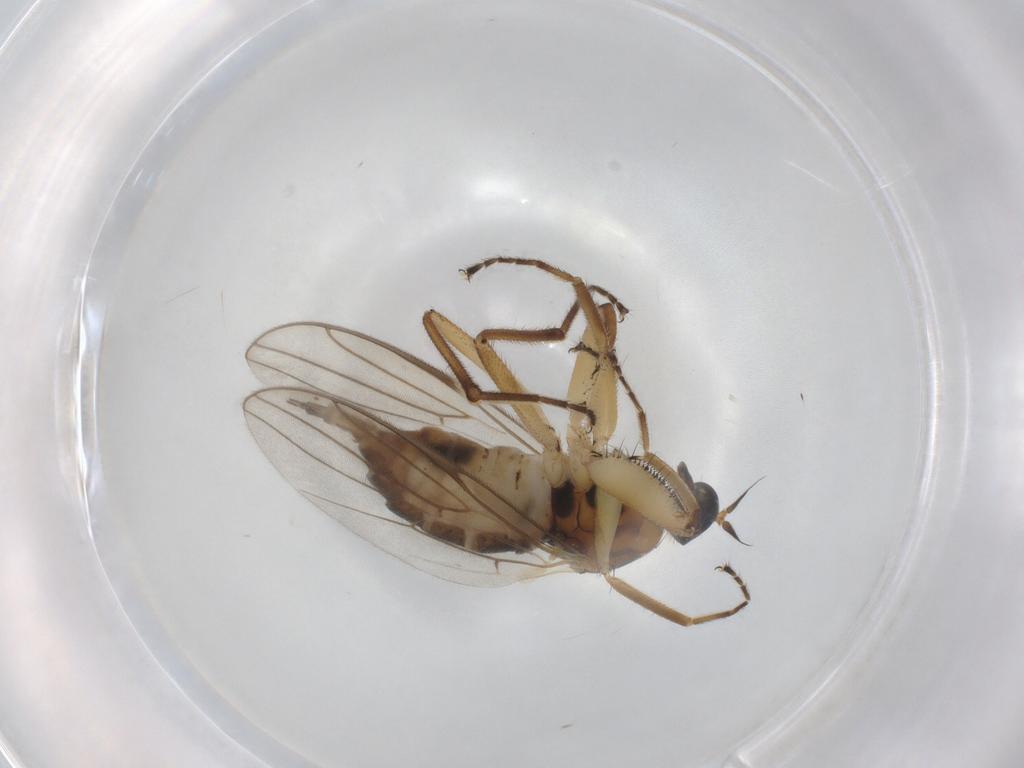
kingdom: Animalia
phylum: Arthropoda
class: Insecta
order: Diptera
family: Hybotidae
